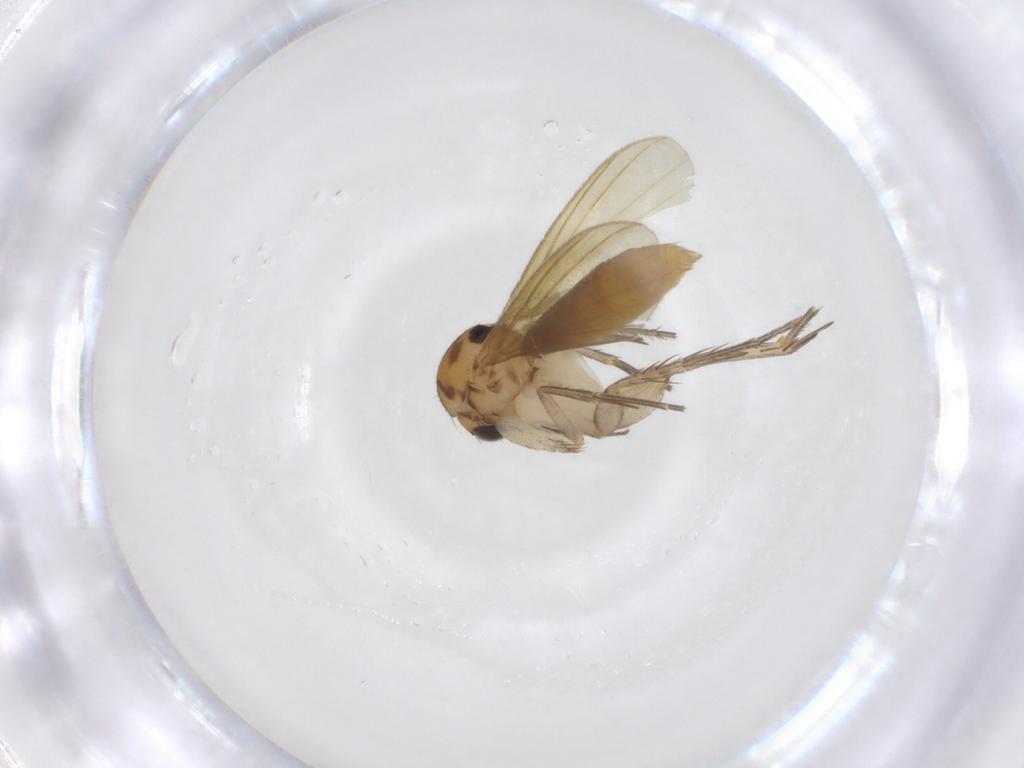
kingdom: Animalia
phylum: Arthropoda
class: Insecta
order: Diptera
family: Mycetophilidae
